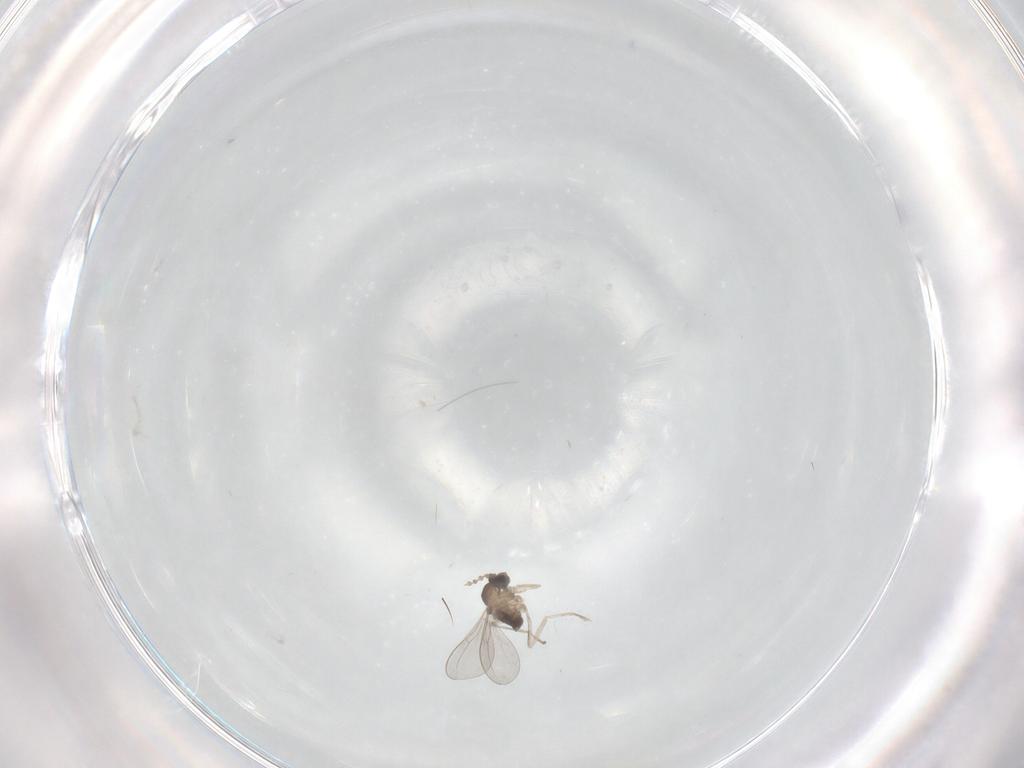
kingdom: Animalia
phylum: Arthropoda
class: Insecta
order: Diptera
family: Cecidomyiidae
